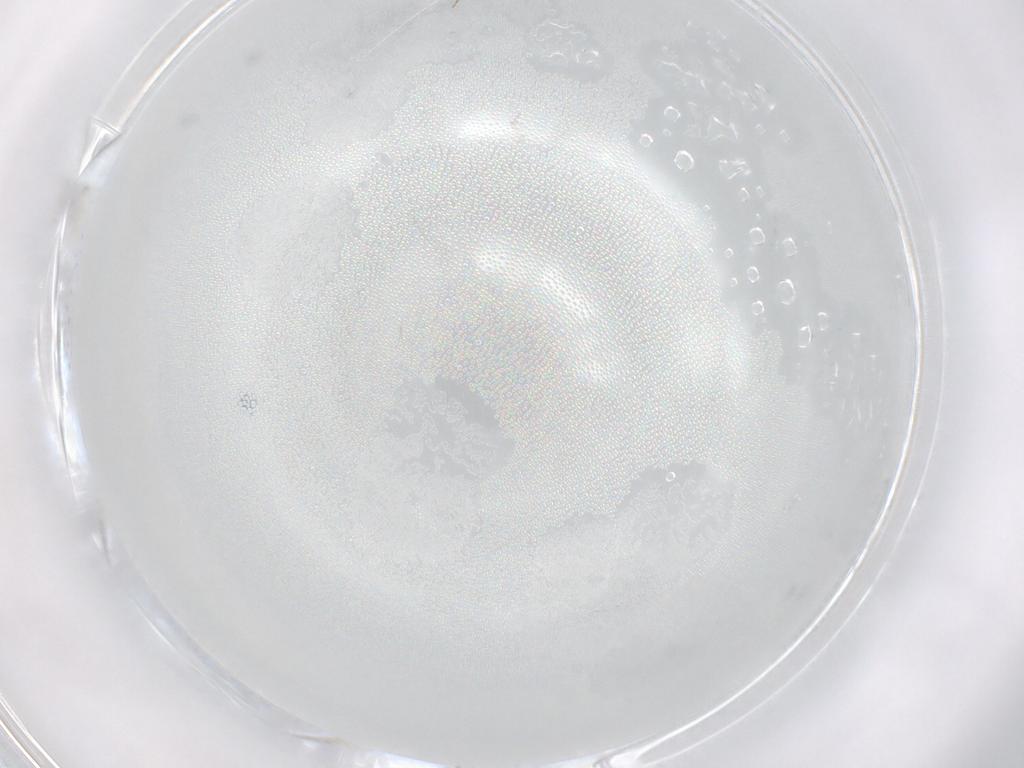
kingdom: Animalia
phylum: Arthropoda
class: Insecta
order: Diptera
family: Chironomidae
